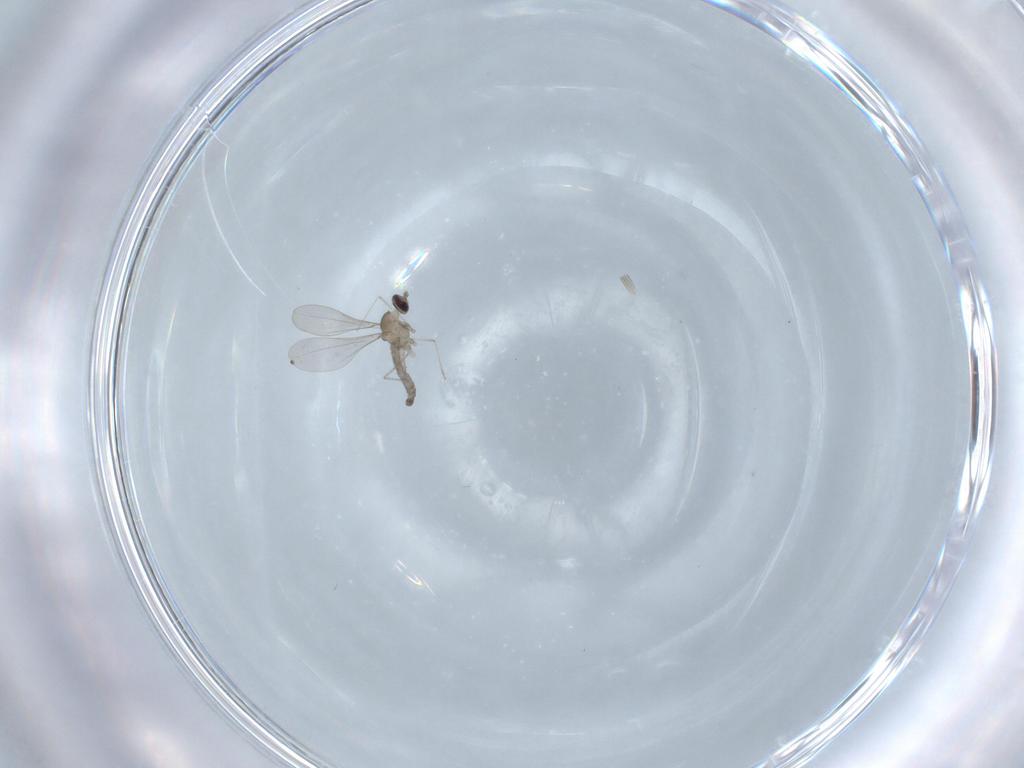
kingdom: Animalia
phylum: Arthropoda
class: Insecta
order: Diptera
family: Cecidomyiidae
